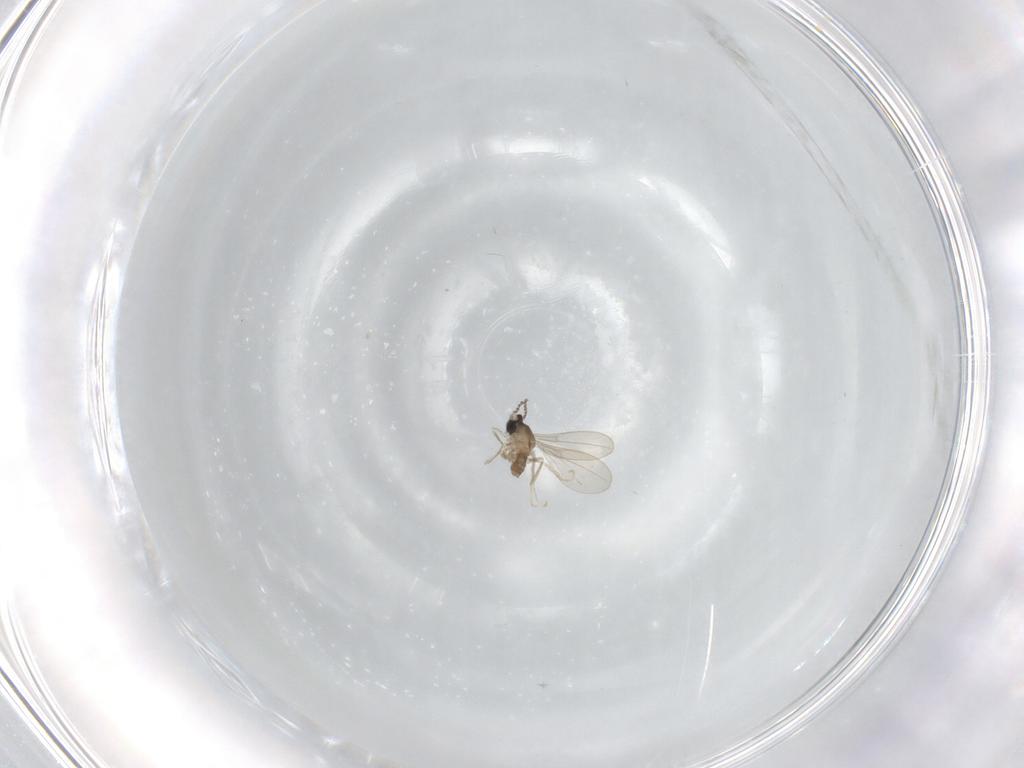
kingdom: Animalia
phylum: Arthropoda
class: Insecta
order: Diptera
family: Cecidomyiidae
